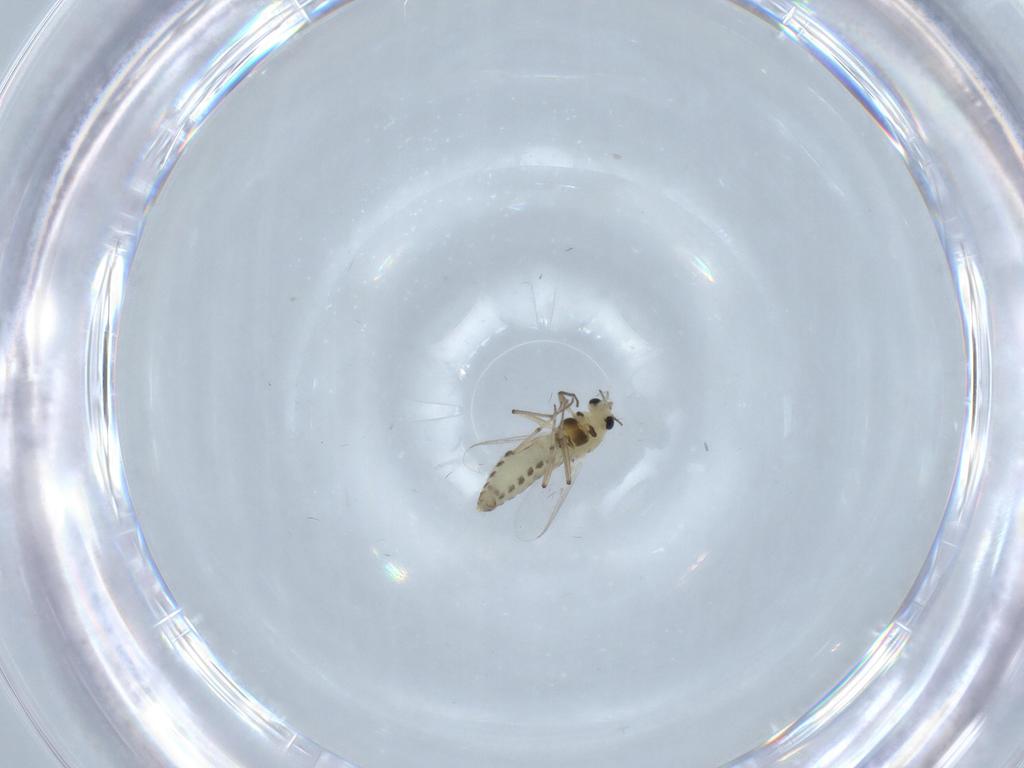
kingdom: Animalia
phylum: Arthropoda
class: Insecta
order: Diptera
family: Chironomidae
